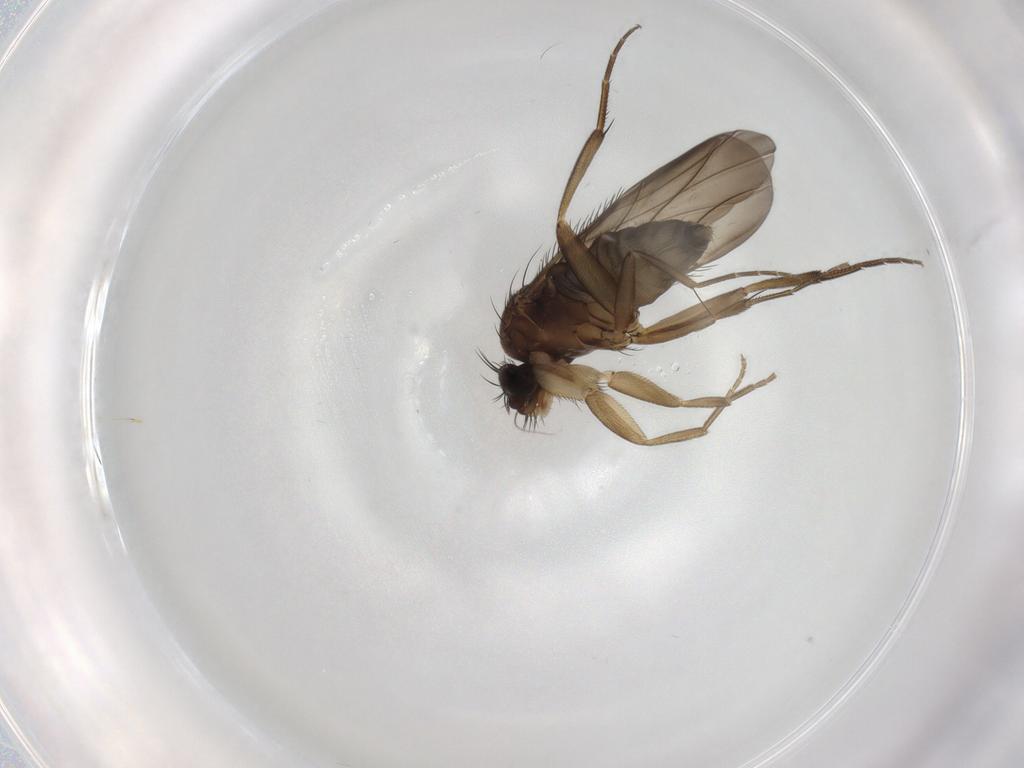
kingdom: Animalia
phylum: Arthropoda
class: Insecta
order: Diptera
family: Phoridae
